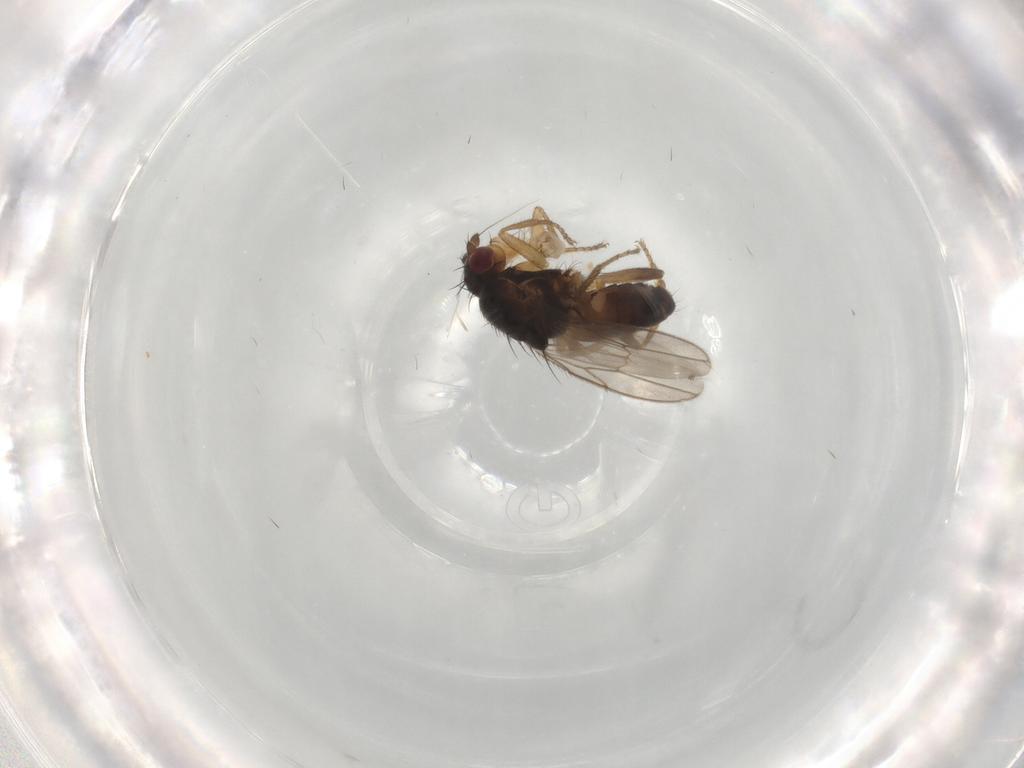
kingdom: Animalia
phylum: Arthropoda
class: Insecta
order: Diptera
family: Sphaeroceridae
